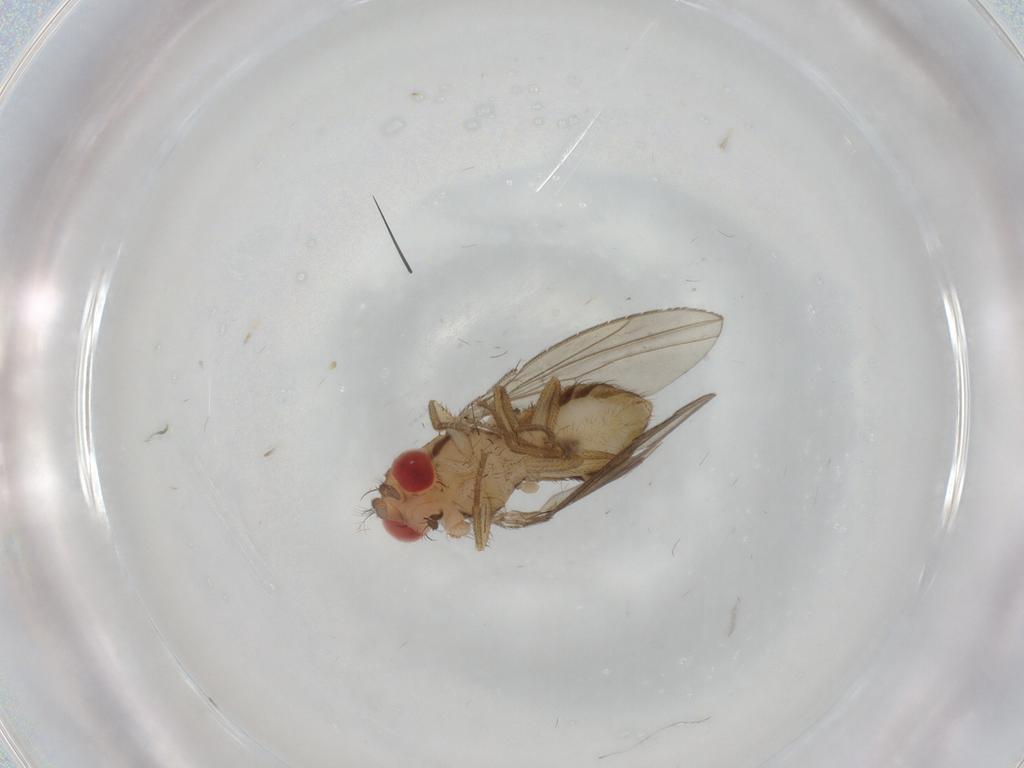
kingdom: Animalia
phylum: Arthropoda
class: Insecta
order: Diptera
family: Drosophilidae
